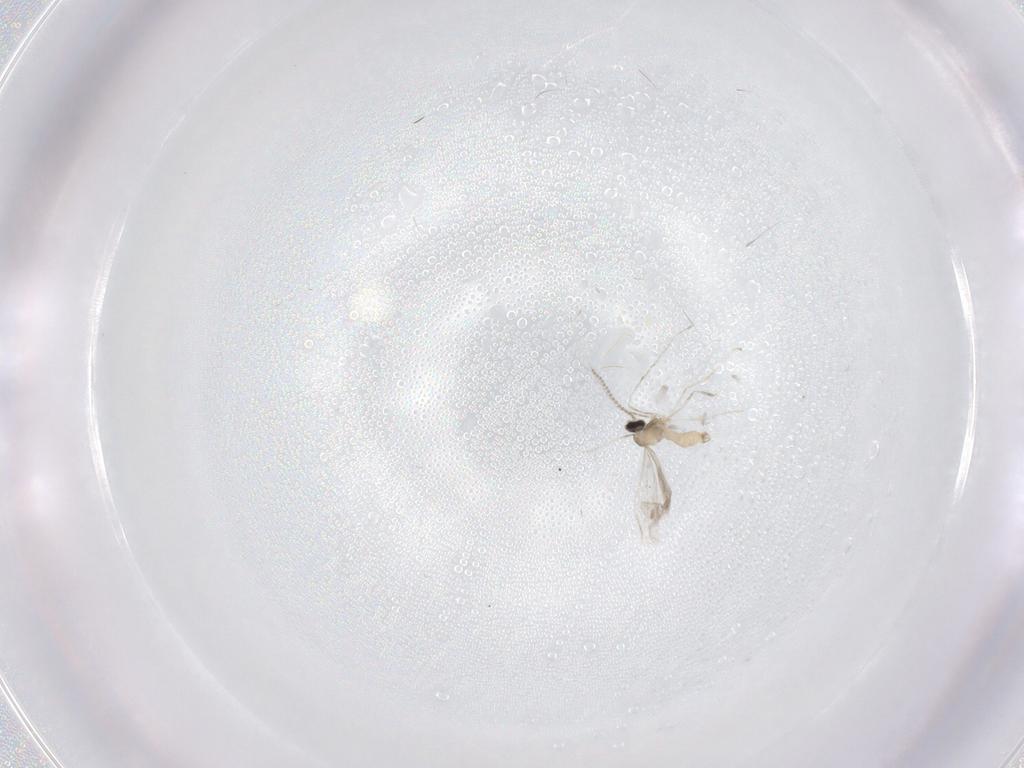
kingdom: Animalia
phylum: Arthropoda
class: Insecta
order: Diptera
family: Cecidomyiidae
